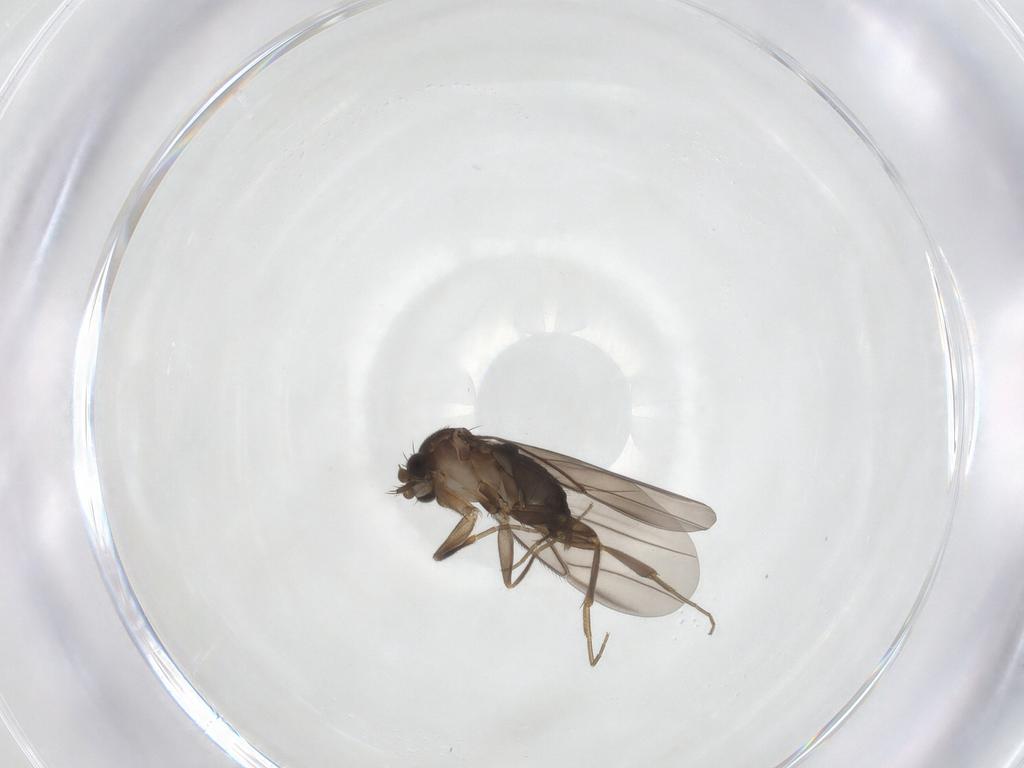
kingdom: Animalia
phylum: Arthropoda
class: Insecta
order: Diptera
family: Phoridae
